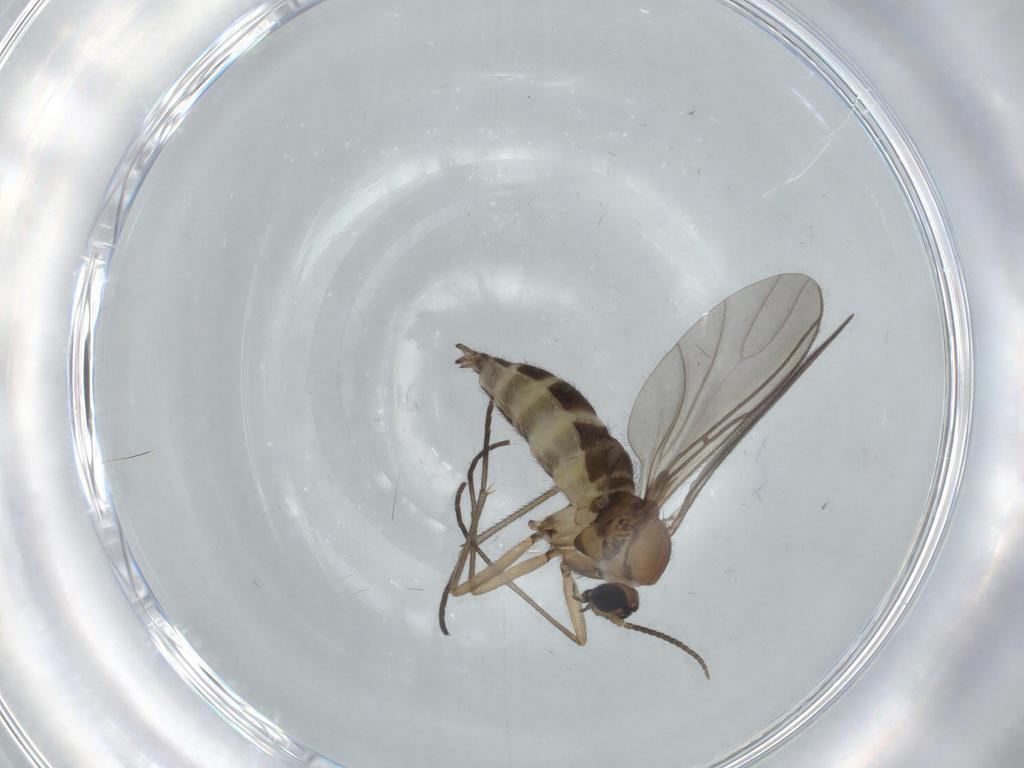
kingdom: Animalia
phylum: Arthropoda
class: Insecta
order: Diptera
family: Sciaridae
